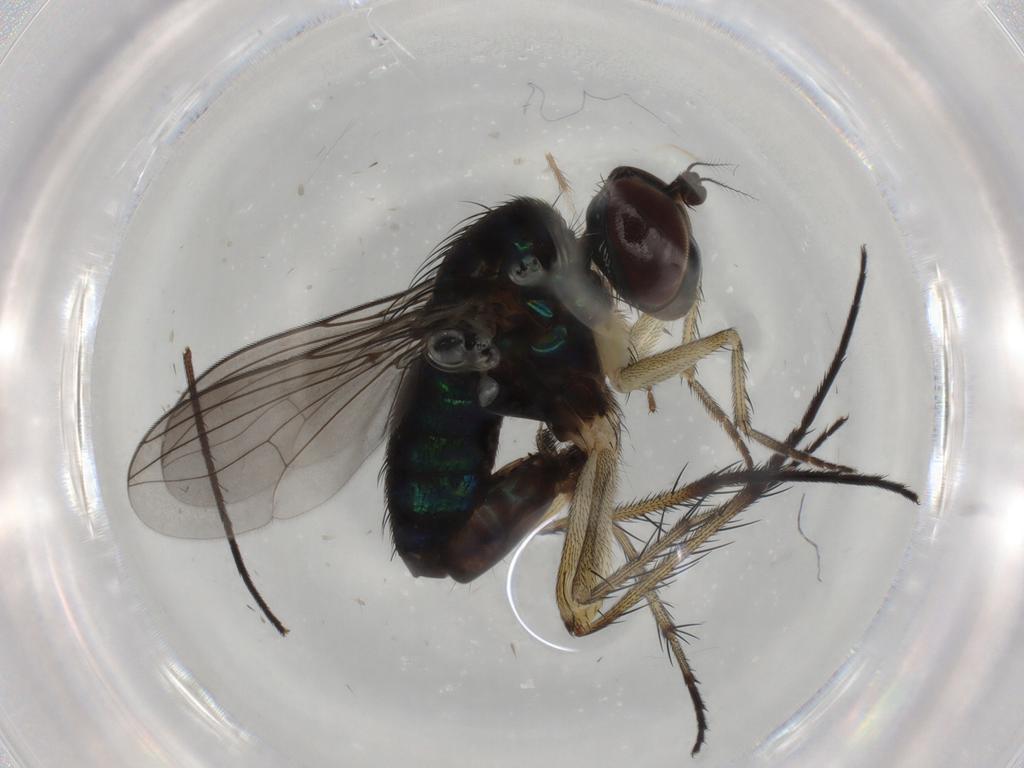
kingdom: Animalia
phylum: Arthropoda
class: Insecta
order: Diptera
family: Dolichopodidae
